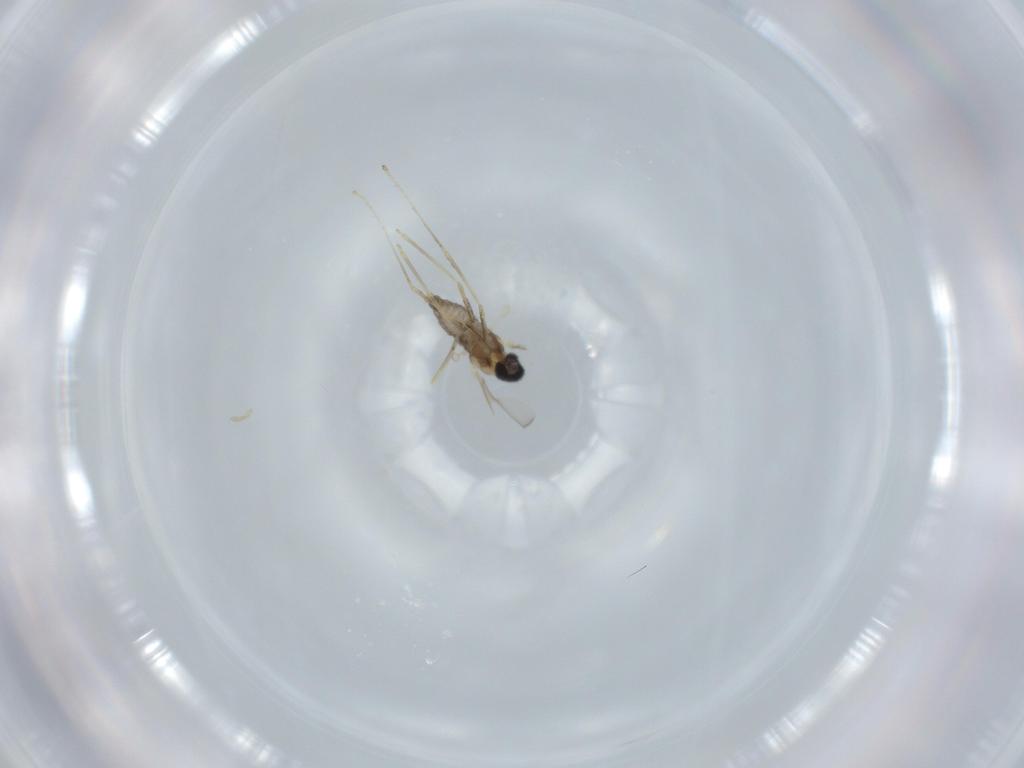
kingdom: Animalia
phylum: Arthropoda
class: Insecta
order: Diptera
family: Cecidomyiidae
